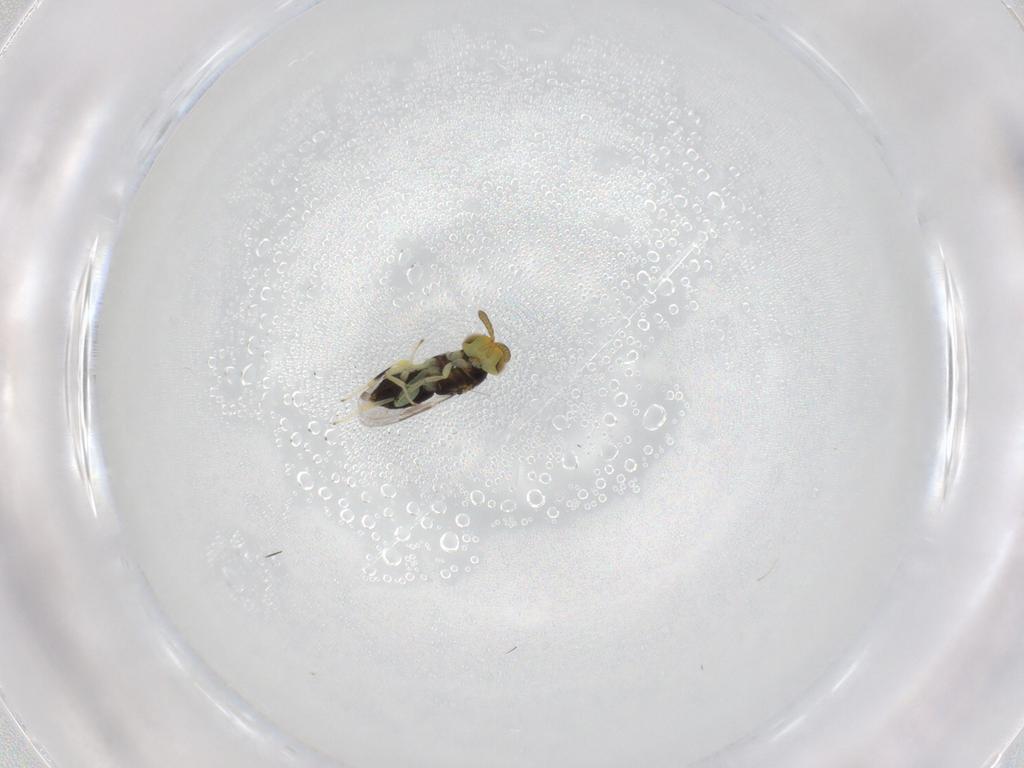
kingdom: Animalia
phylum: Arthropoda
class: Insecta
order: Hymenoptera
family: Aphelinidae
